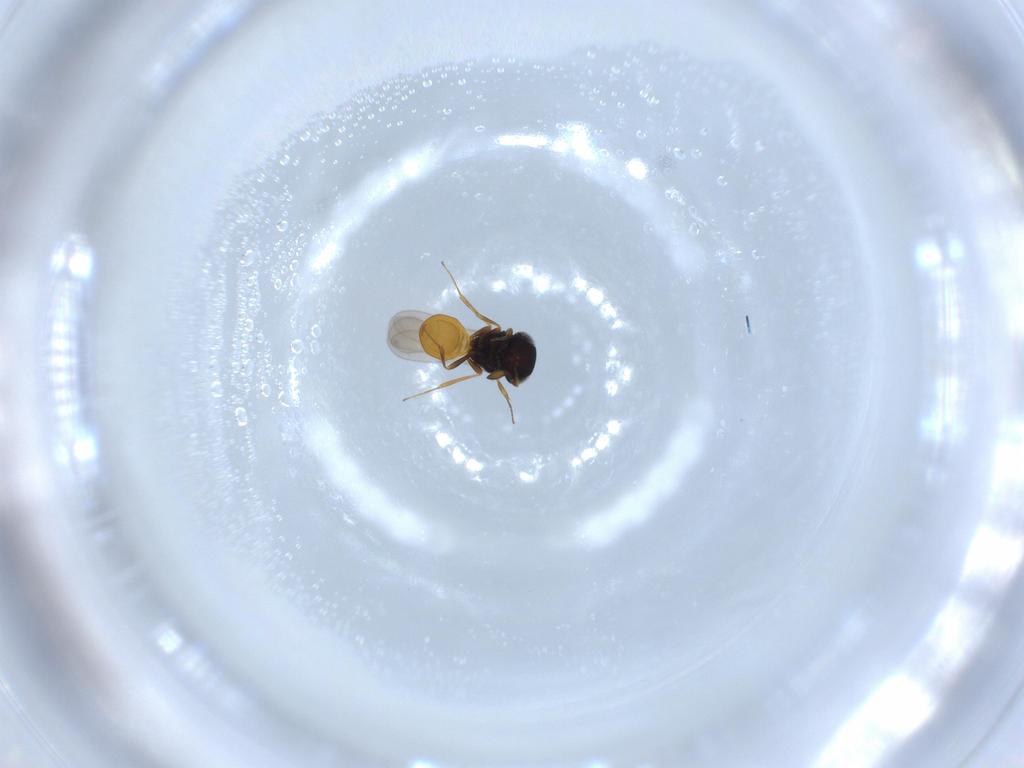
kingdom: Animalia
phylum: Arthropoda
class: Insecta
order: Hymenoptera
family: Scelionidae
